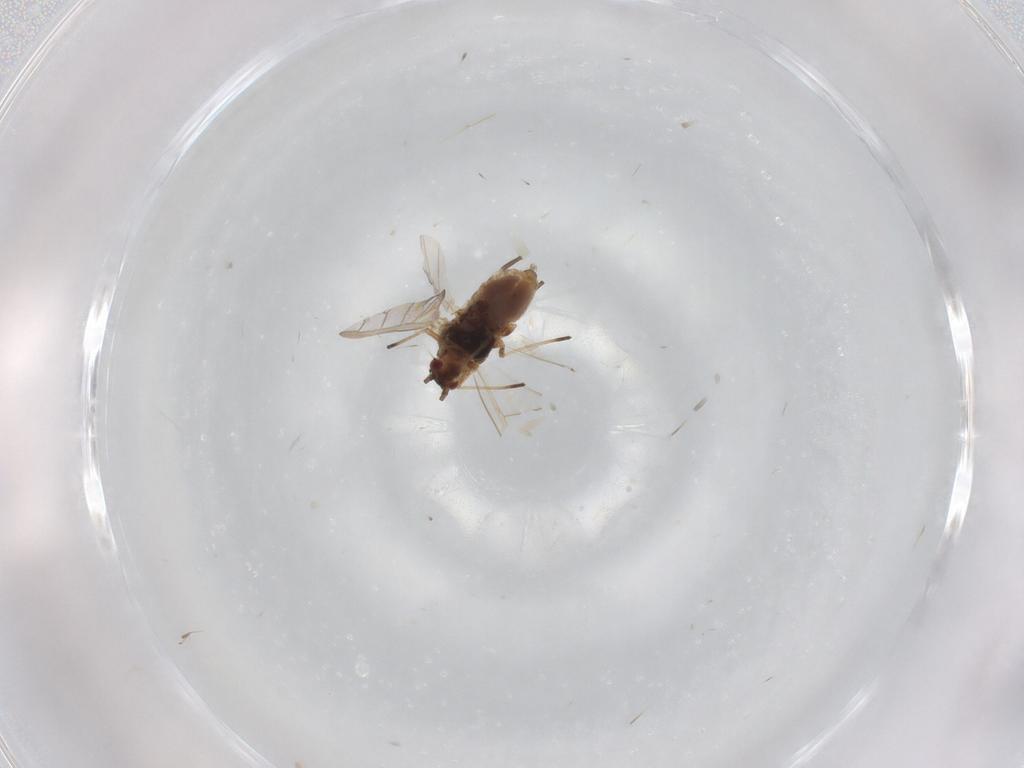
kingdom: Animalia
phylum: Arthropoda
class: Insecta
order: Hemiptera
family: Aphididae
